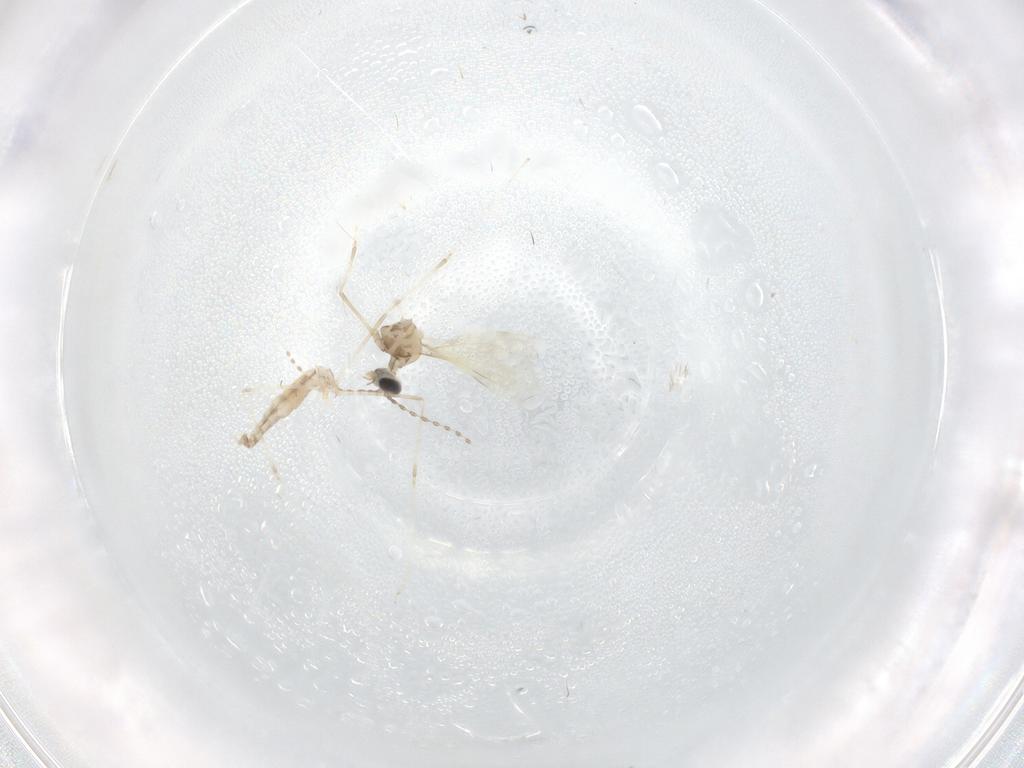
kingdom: Animalia
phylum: Arthropoda
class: Insecta
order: Diptera
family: Cecidomyiidae
